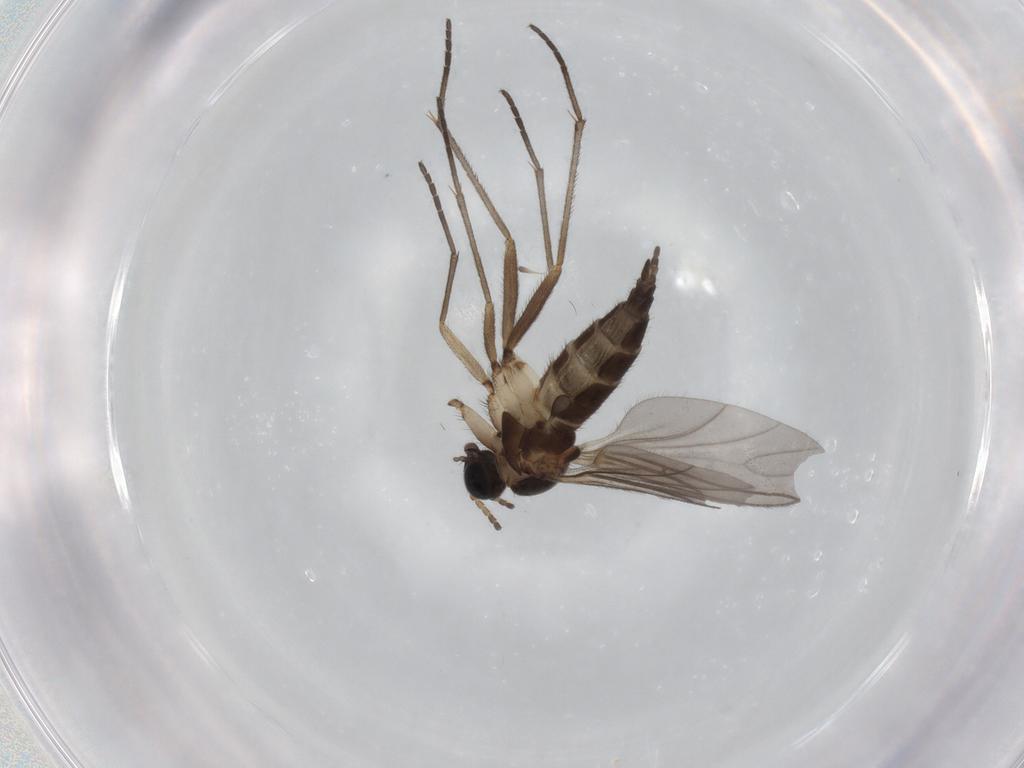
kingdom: Animalia
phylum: Arthropoda
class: Insecta
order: Diptera
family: Sciaridae
